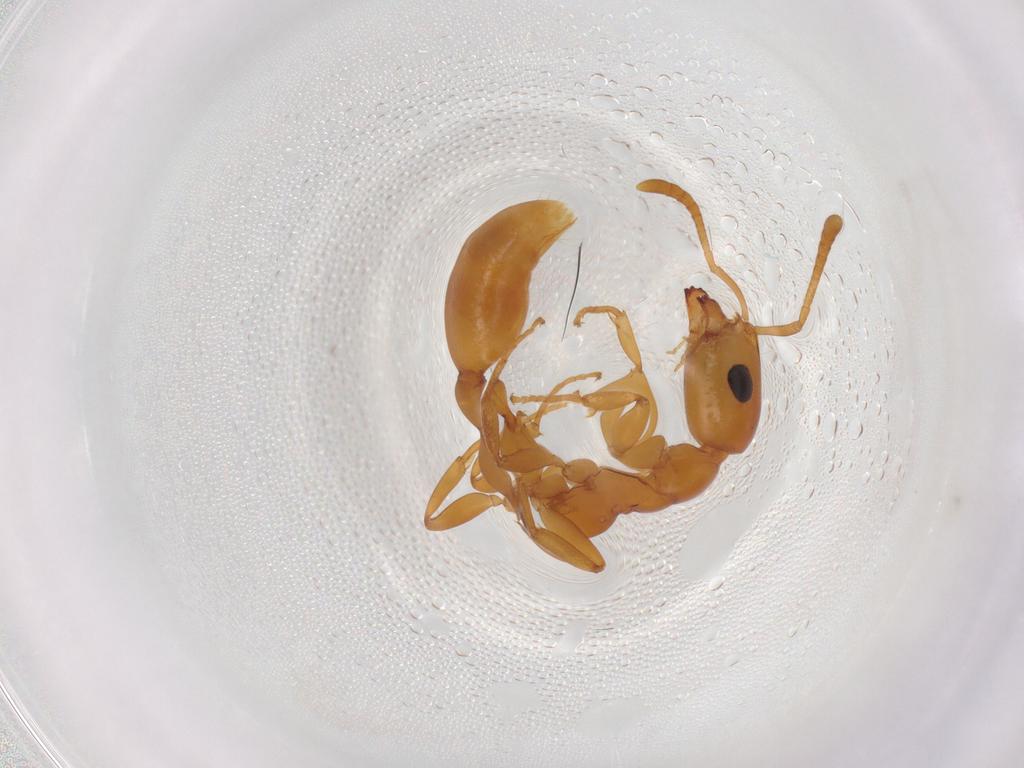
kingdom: Animalia
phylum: Arthropoda
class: Insecta
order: Hymenoptera
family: Formicidae
